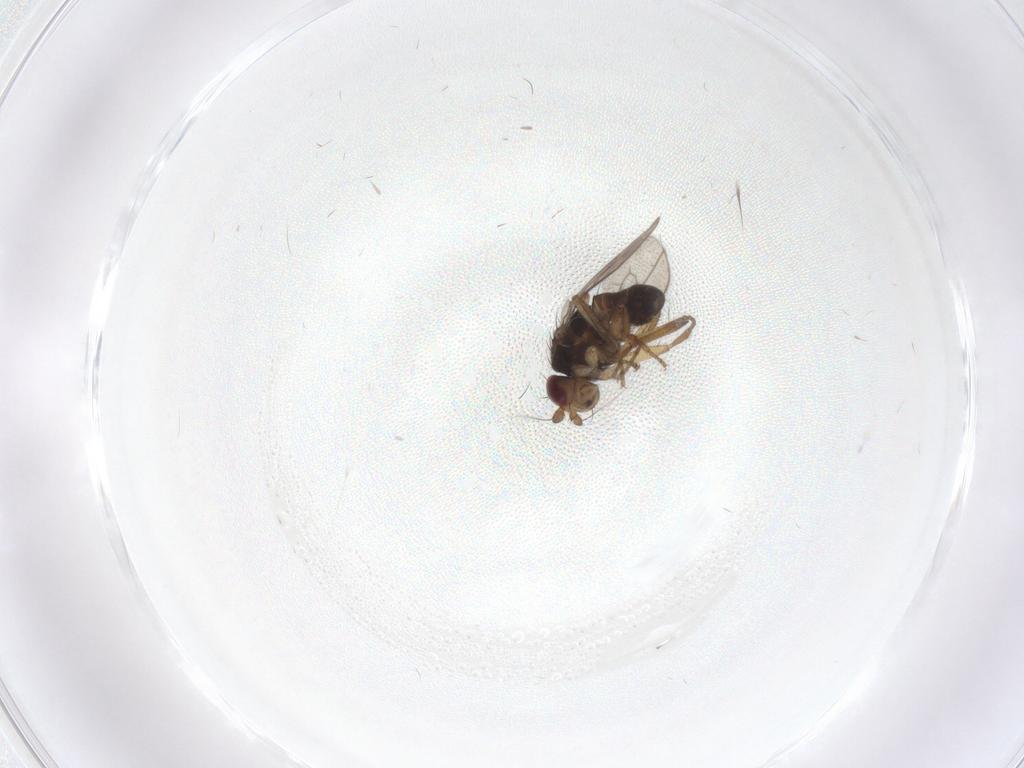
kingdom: Animalia
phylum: Arthropoda
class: Insecta
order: Diptera
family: Sphaeroceridae
